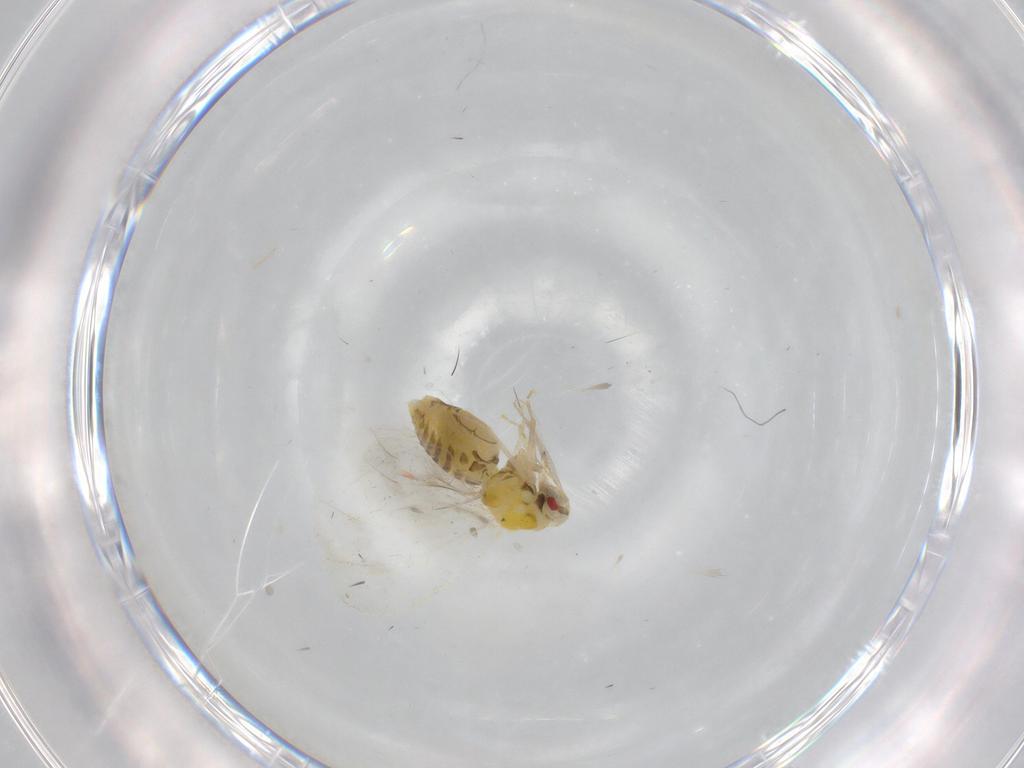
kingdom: Animalia
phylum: Arthropoda
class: Insecta
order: Hemiptera
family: Aleyrodidae
